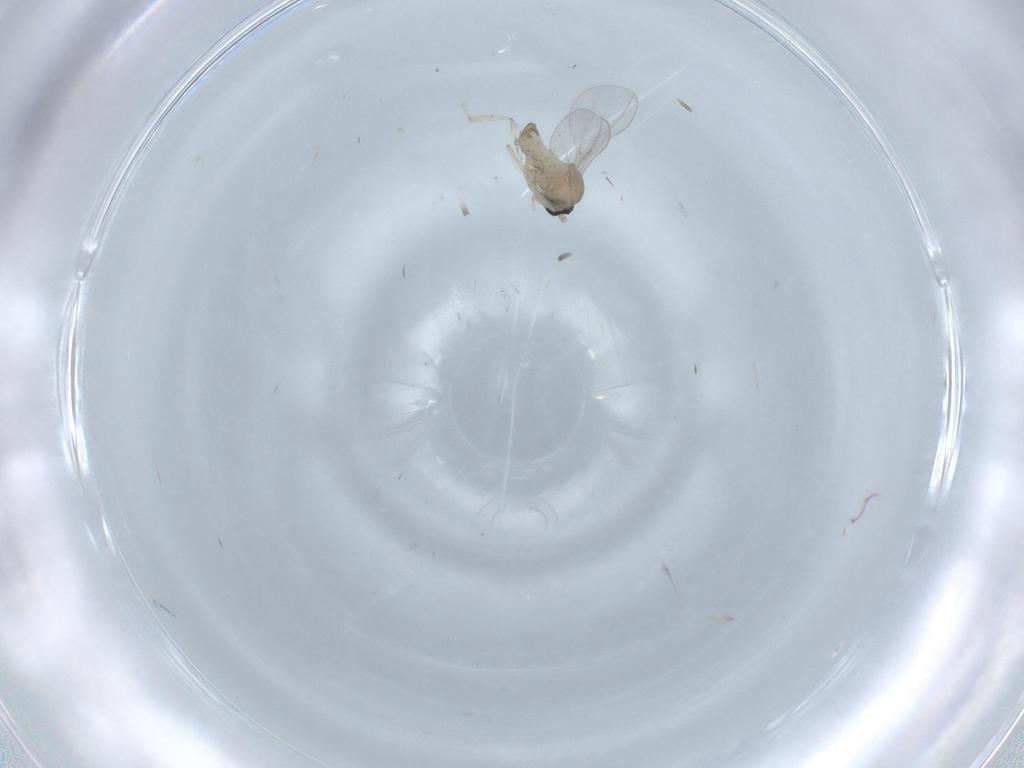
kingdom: Animalia
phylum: Arthropoda
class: Insecta
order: Diptera
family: Cecidomyiidae
